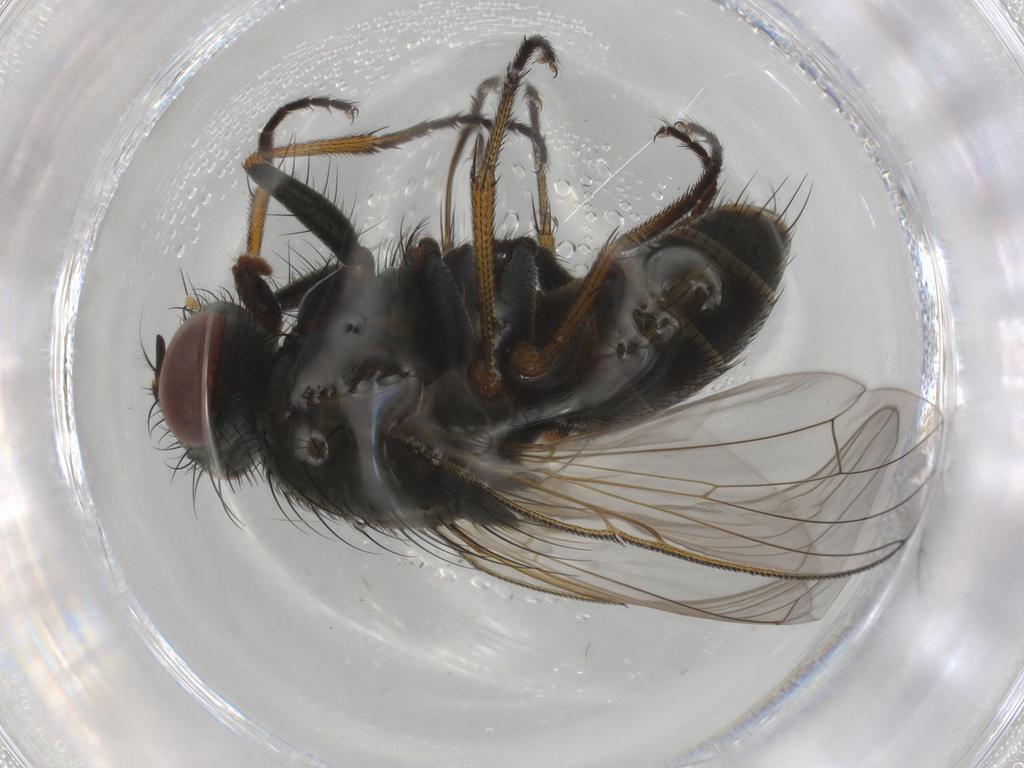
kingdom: Animalia
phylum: Arthropoda
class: Insecta
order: Diptera
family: Muscidae
